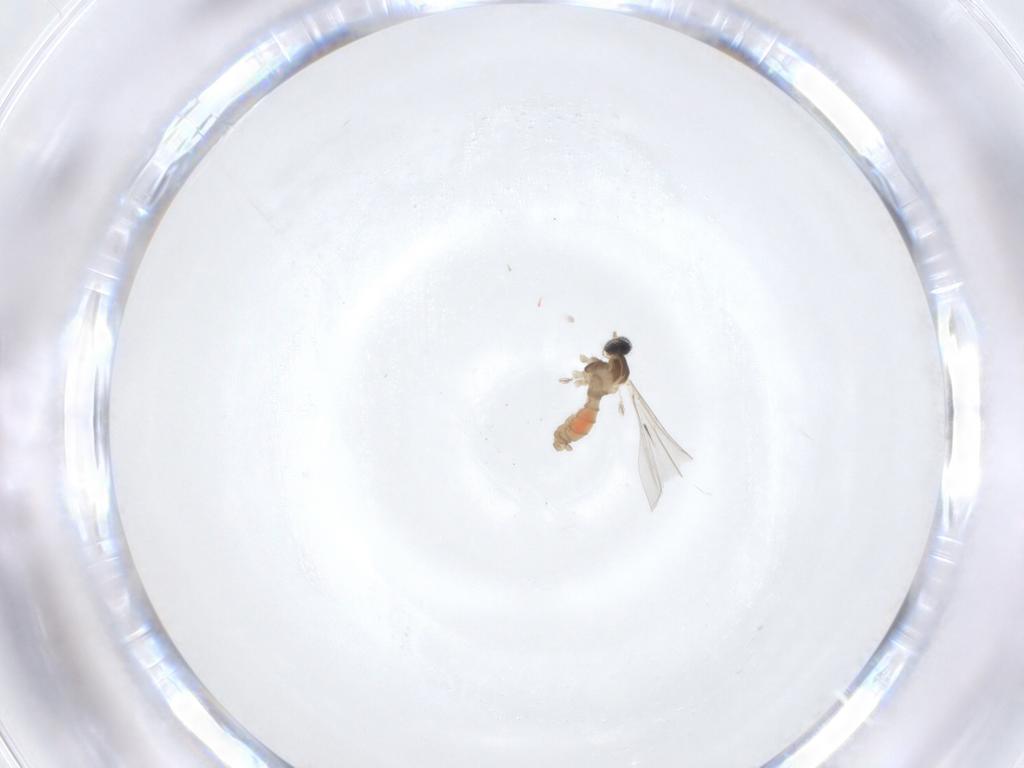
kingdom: Animalia
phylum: Arthropoda
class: Insecta
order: Diptera
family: Cecidomyiidae
